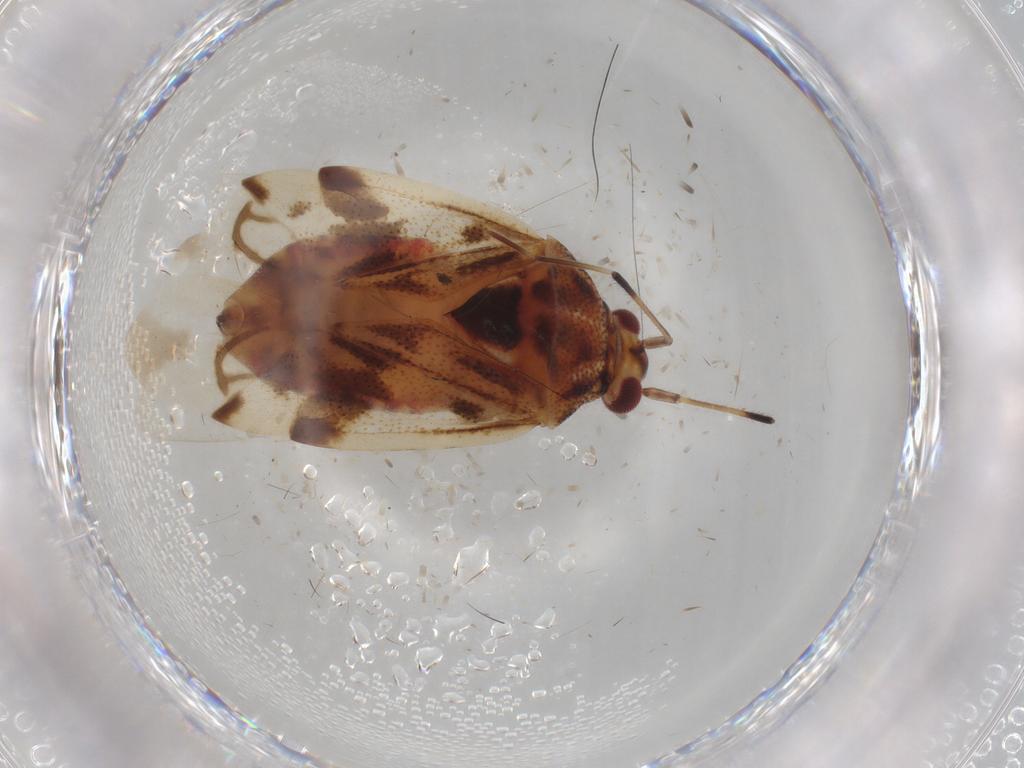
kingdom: Animalia
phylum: Arthropoda
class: Insecta
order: Hemiptera
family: Miridae
